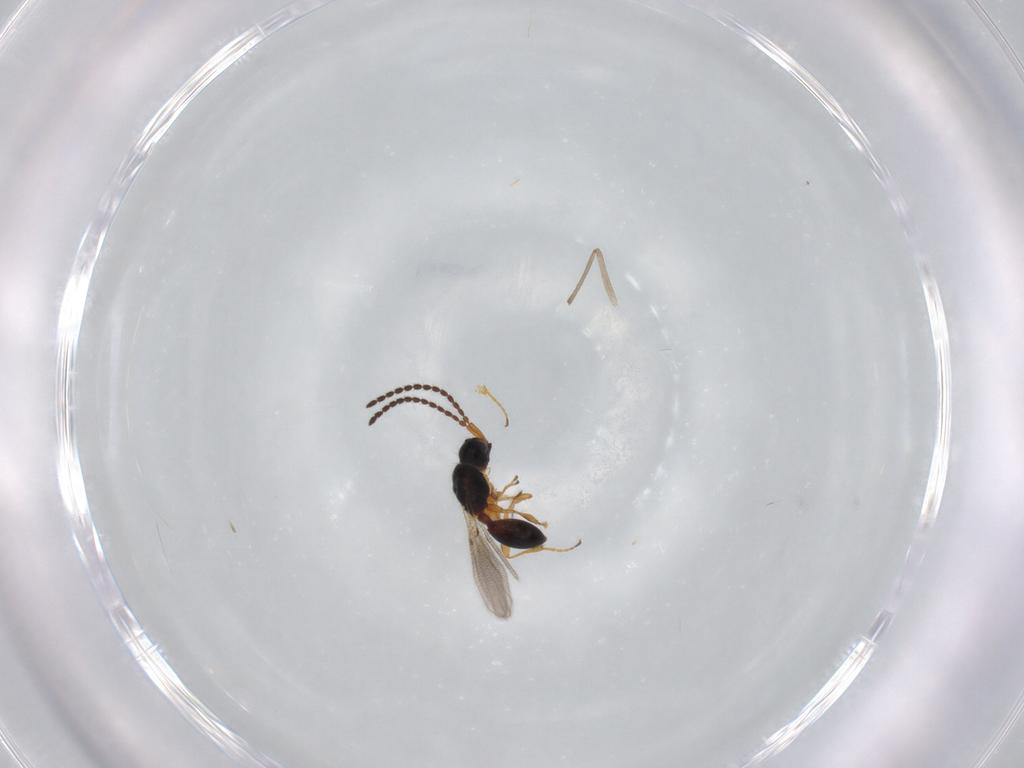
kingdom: Animalia
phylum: Arthropoda
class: Insecta
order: Hymenoptera
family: Diapriidae
